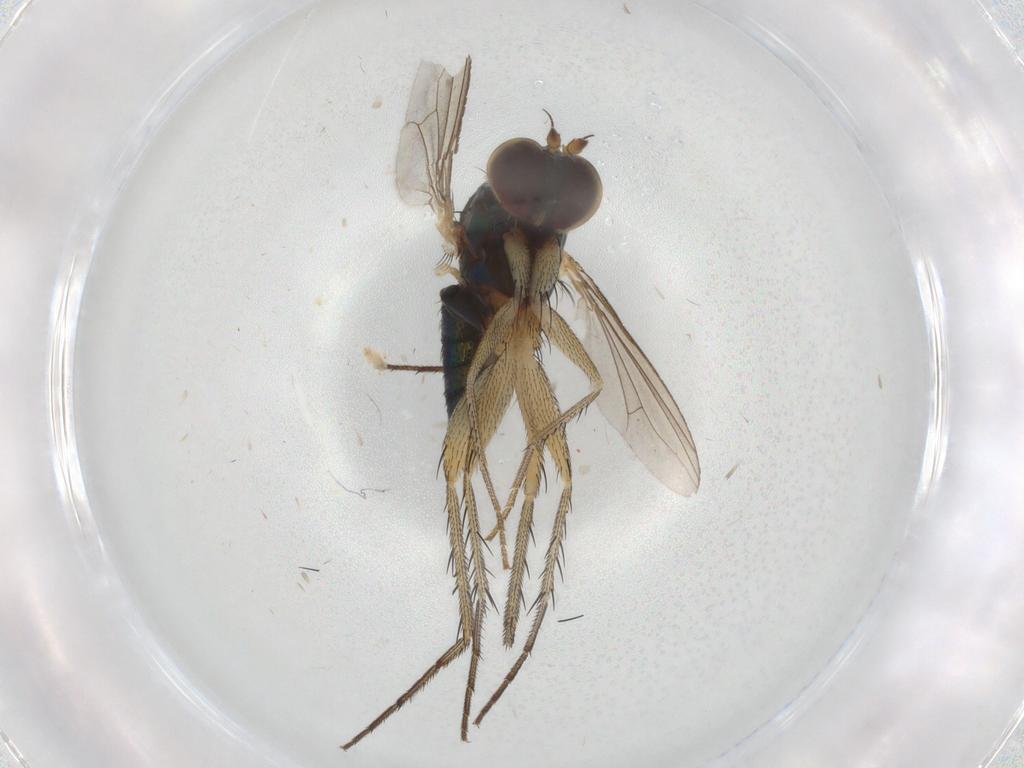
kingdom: Animalia
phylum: Arthropoda
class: Insecta
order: Diptera
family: Dolichopodidae
